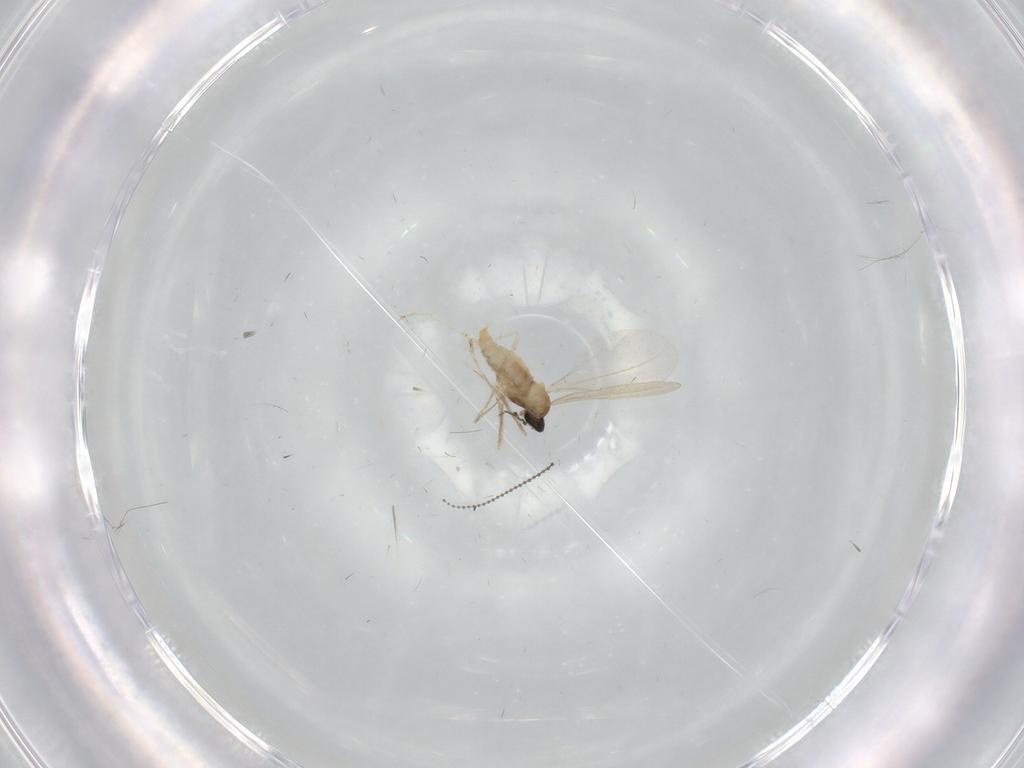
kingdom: Animalia
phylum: Arthropoda
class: Insecta
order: Diptera
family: Cecidomyiidae
